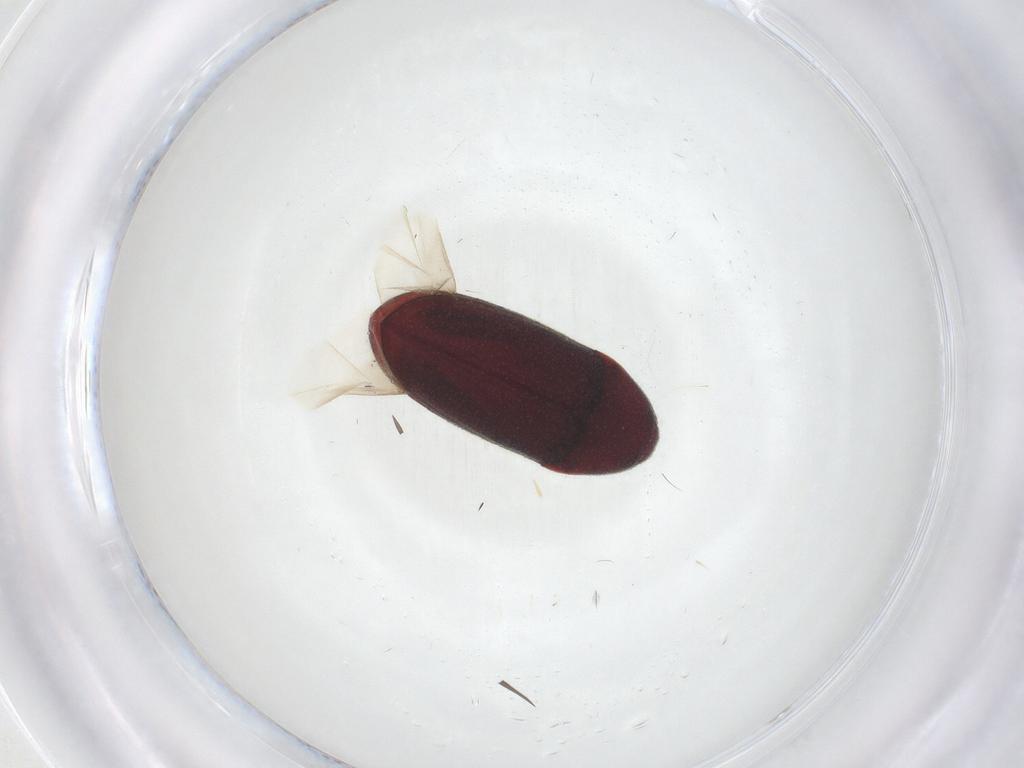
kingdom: Animalia
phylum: Arthropoda
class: Insecta
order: Coleoptera
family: Throscidae
